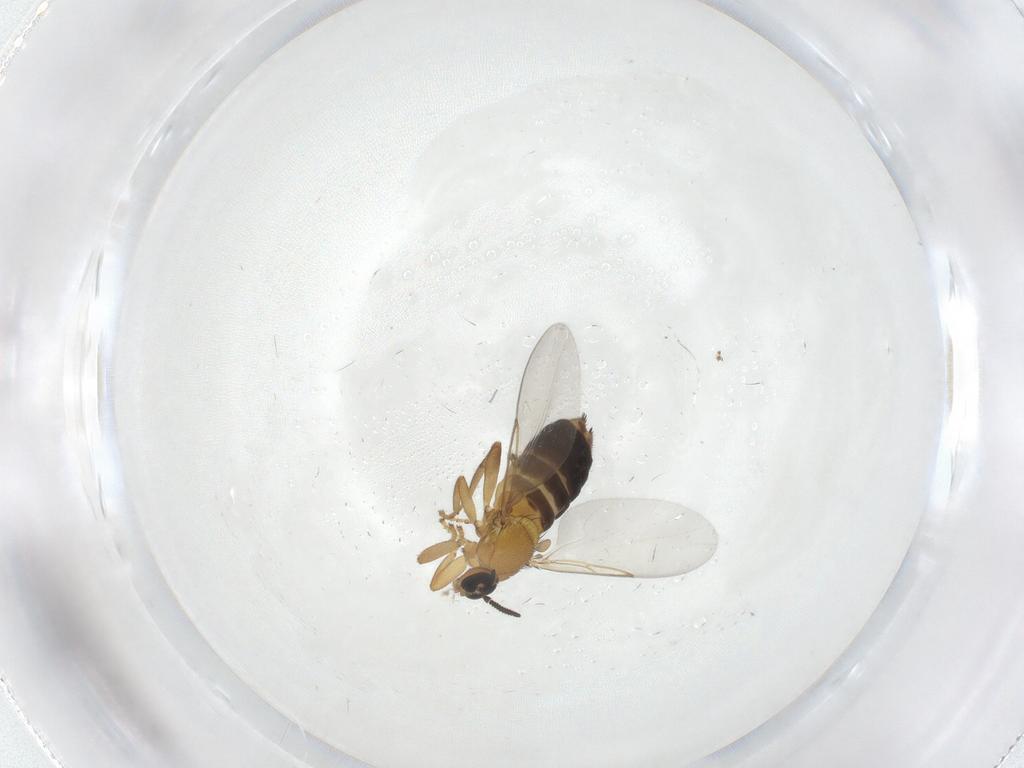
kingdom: Animalia
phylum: Arthropoda
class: Insecta
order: Diptera
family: Scatopsidae
